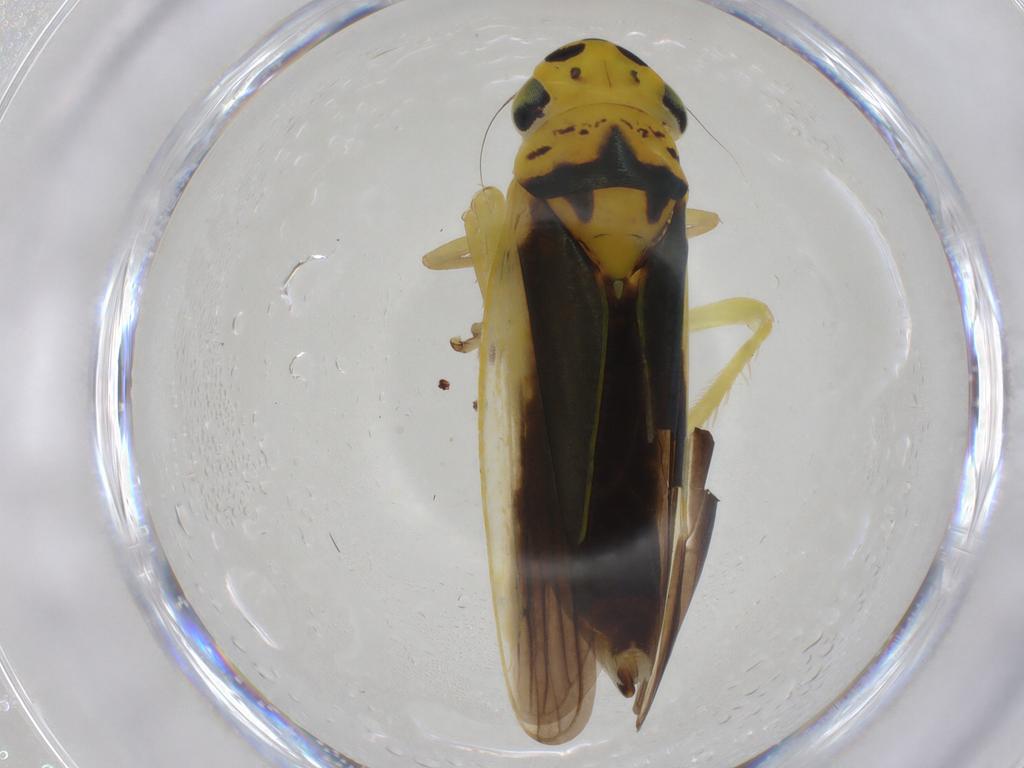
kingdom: Animalia
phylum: Arthropoda
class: Insecta
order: Hemiptera
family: Cicadellidae
